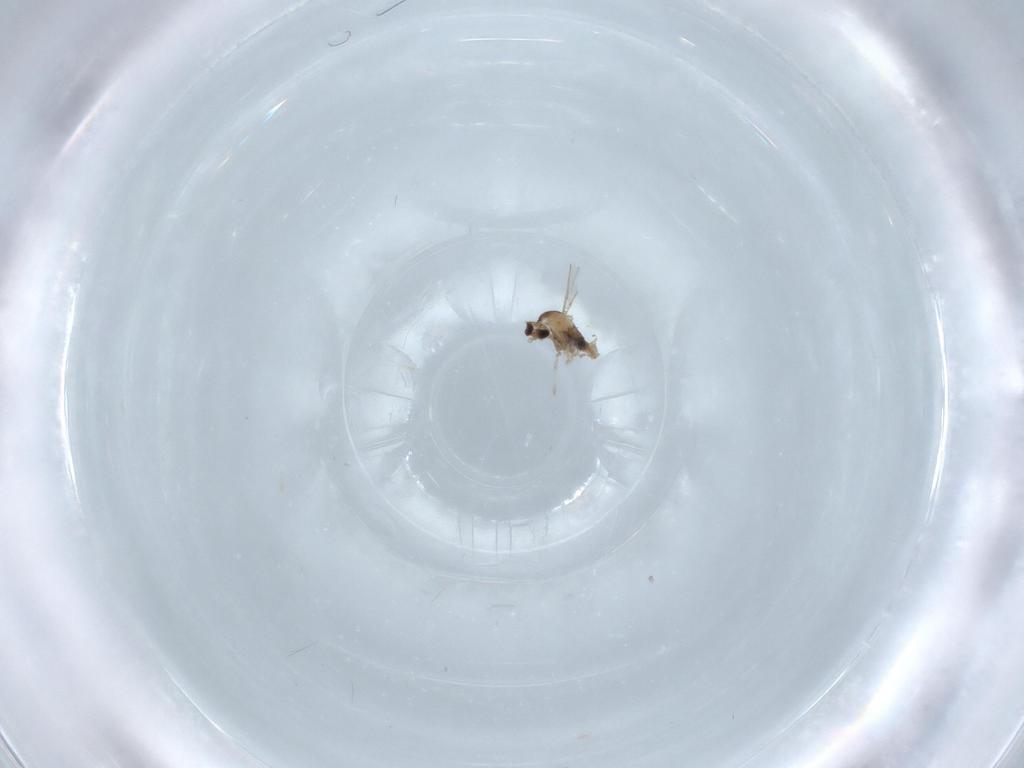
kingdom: Animalia
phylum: Arthropoda
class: Insecta
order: Diptera
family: Cecidomyiidae
